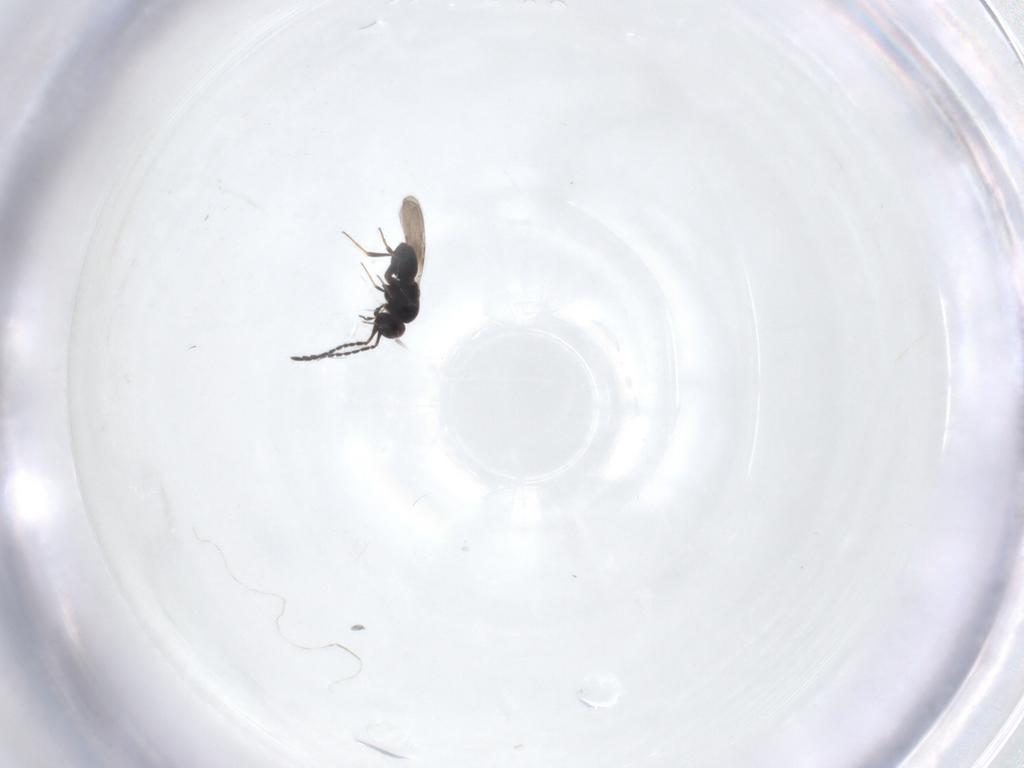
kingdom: Animalia
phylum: Arthropoda
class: Insecta
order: Hymenoptera
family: Ceraphronidae
